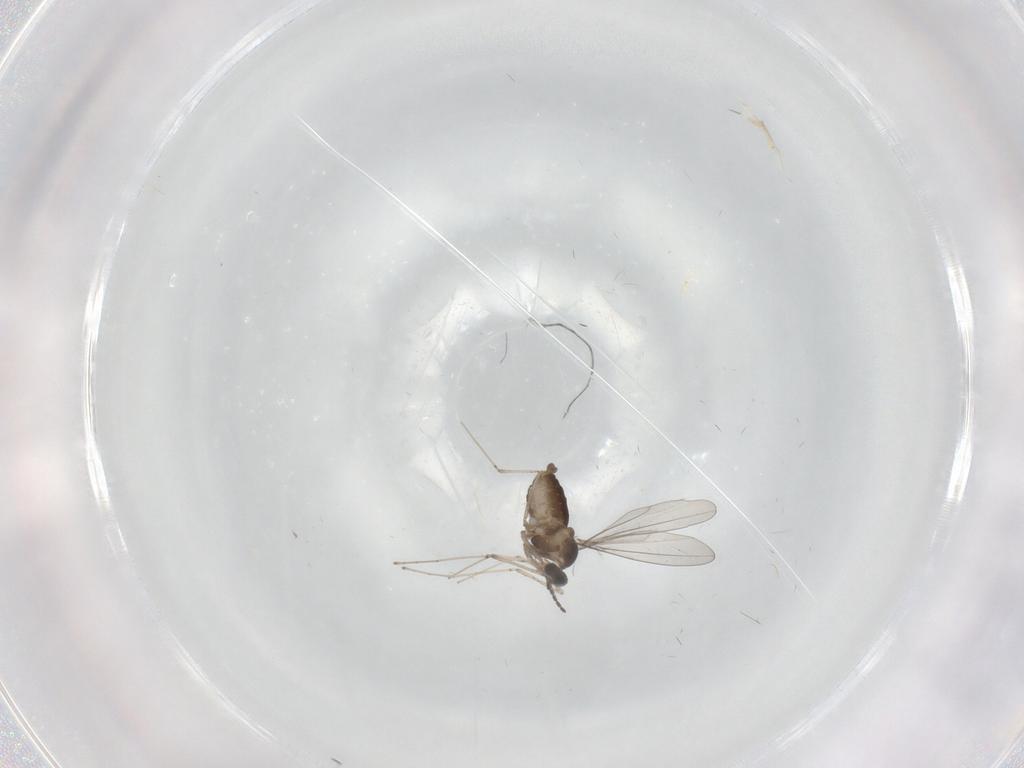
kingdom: Animalia
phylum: Arthropoda
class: Insecta
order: Diptera
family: Cecidomyiidae
